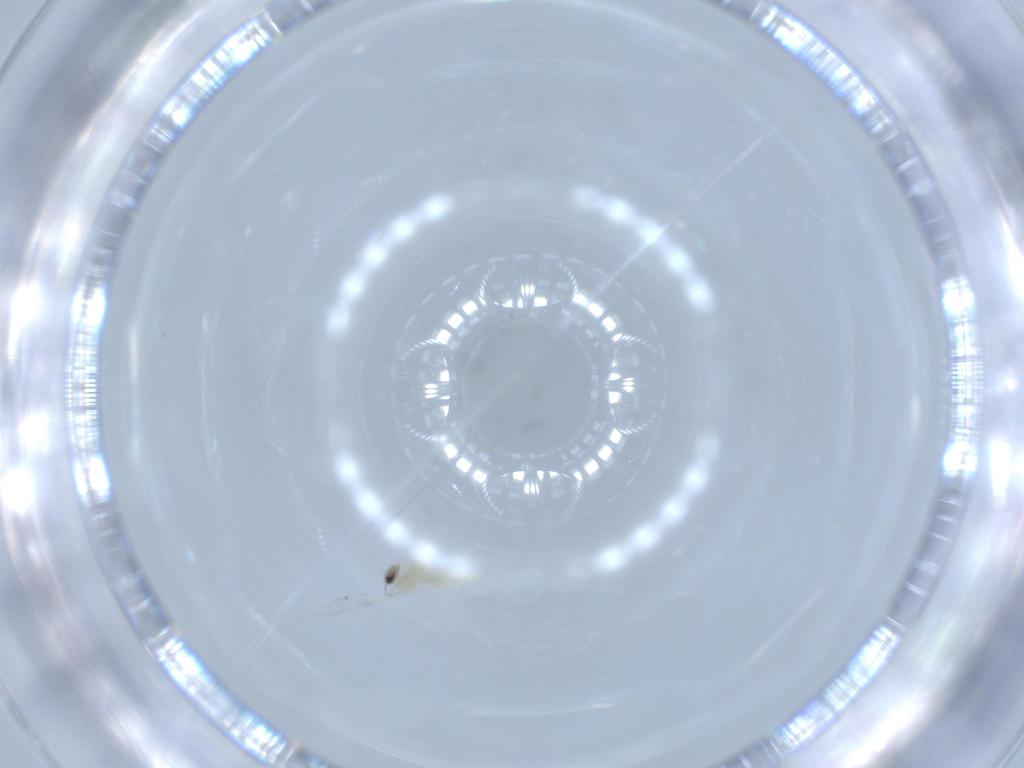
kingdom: Animalia
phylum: Arthropoda
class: Insecta
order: Diptera
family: Cecidomyiidae
